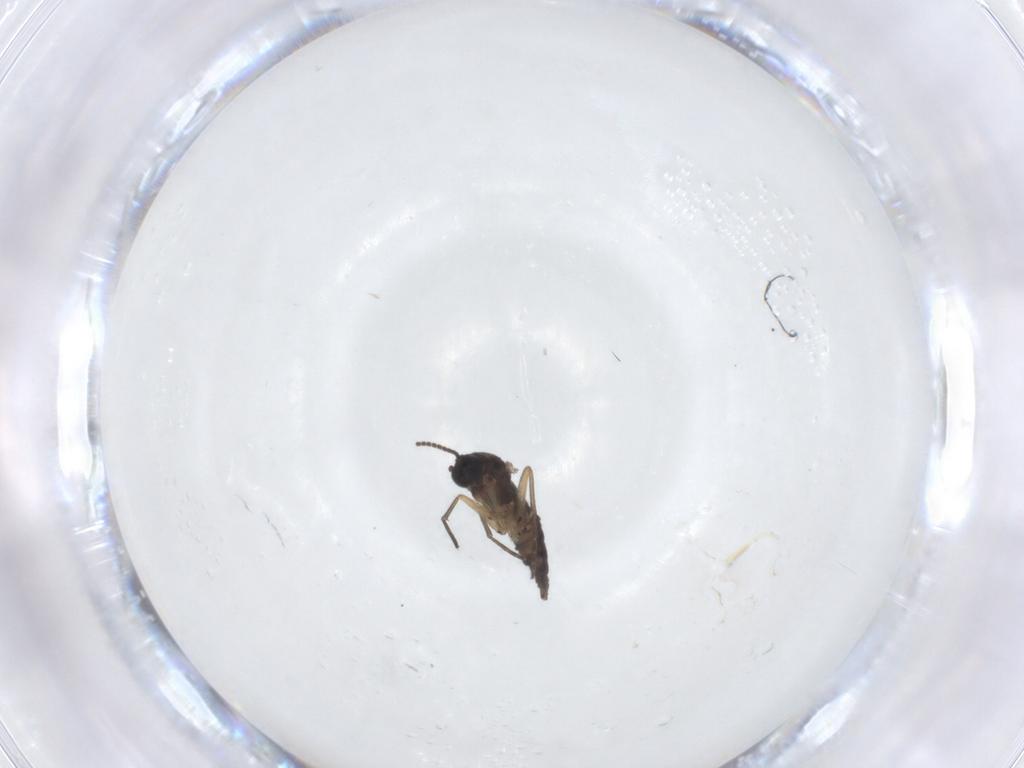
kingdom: Animalia
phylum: Arthropoda
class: Insecta
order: Diptera
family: Sciaridae
